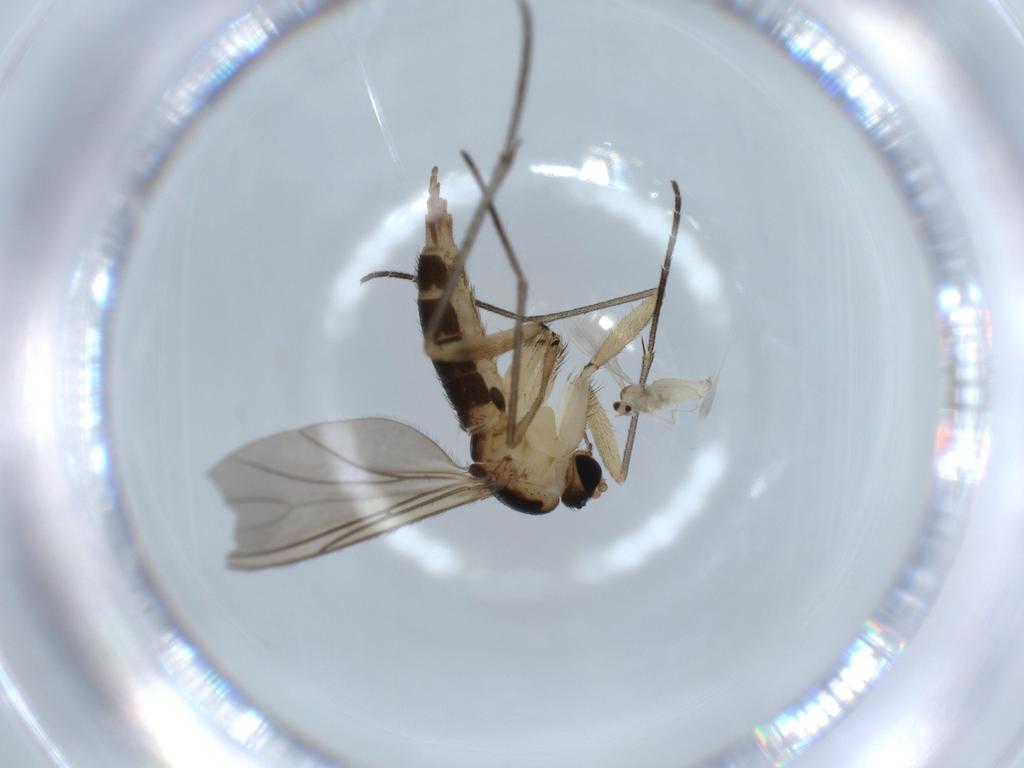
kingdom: Animalia
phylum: Arthropoda
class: Insecta
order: Diptera
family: Sciaridae
